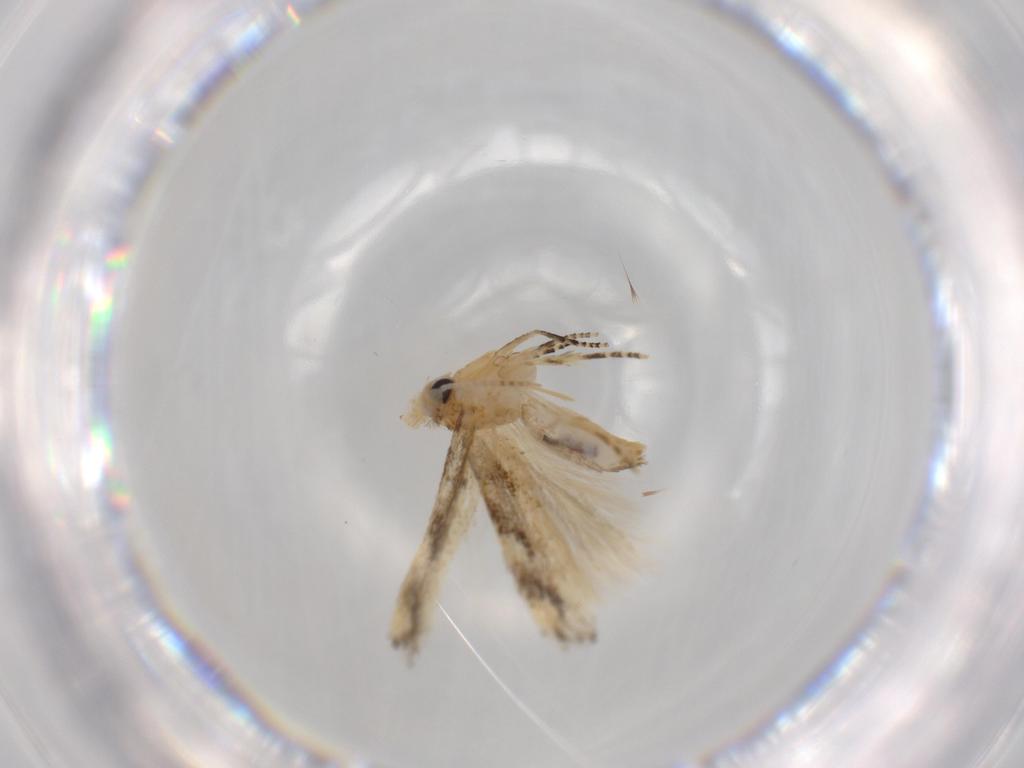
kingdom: Animalia
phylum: Arthropoda
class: Insecta
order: Lepidoptera
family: Bucculatricidae
